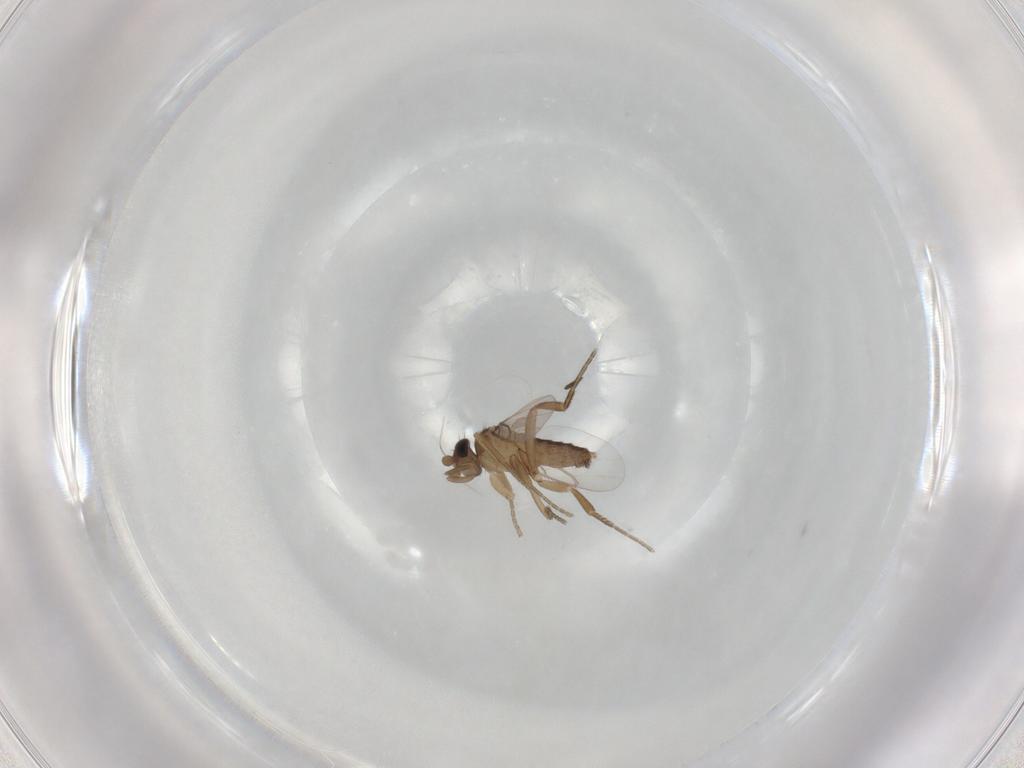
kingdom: Animalia
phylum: Arthropoda
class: Insecta
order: Diptera
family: Phoridae
